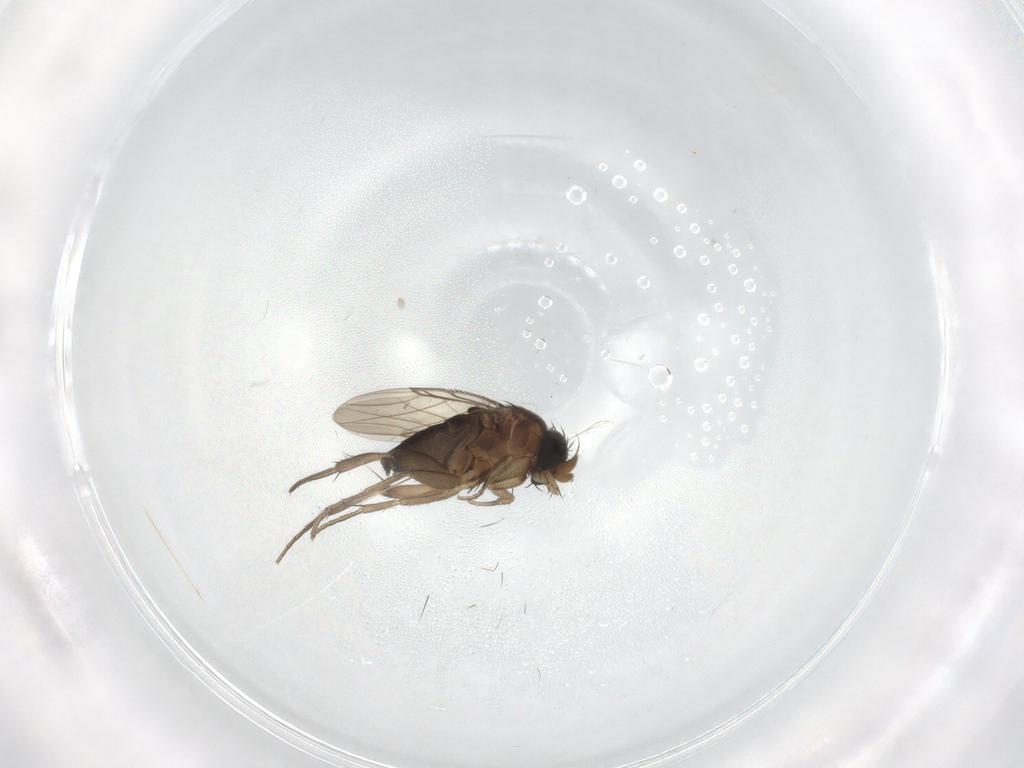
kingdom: Animalia
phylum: Arthropoda
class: Insecta
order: Diptera
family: Phoridae
